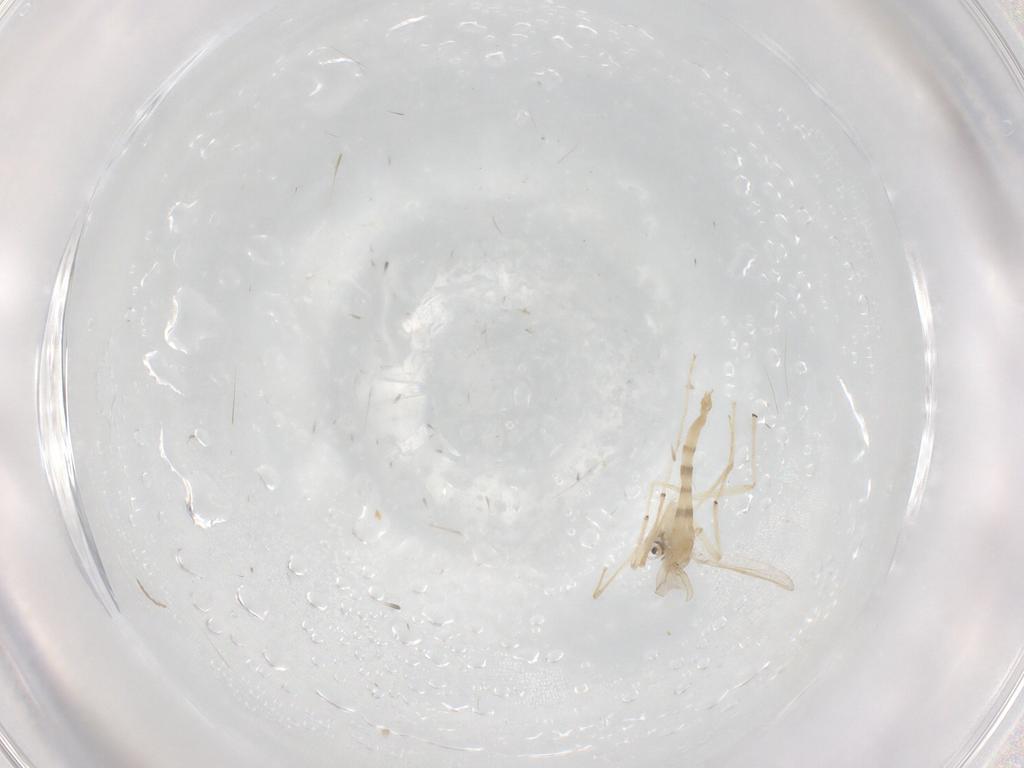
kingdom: Animalia
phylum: Arthropoda
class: Insecta
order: Diptera
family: Chironomidae
